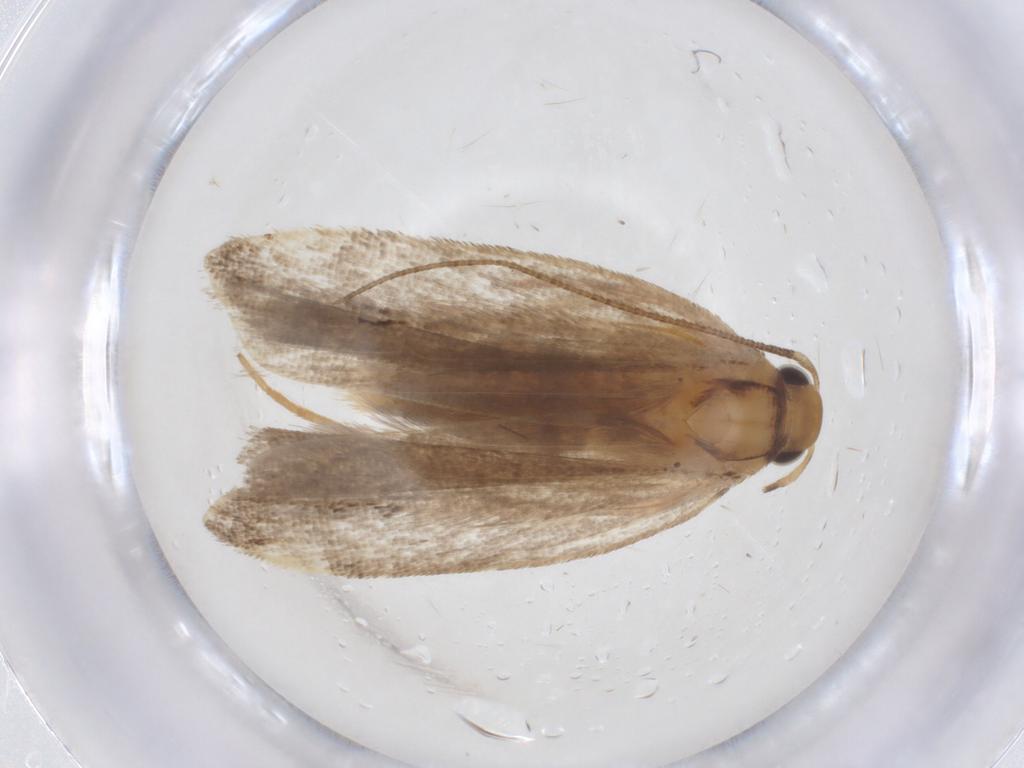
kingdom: Animalia
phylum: Arthropoda
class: Insecta
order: Lepidoptera
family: Gelechiidae
